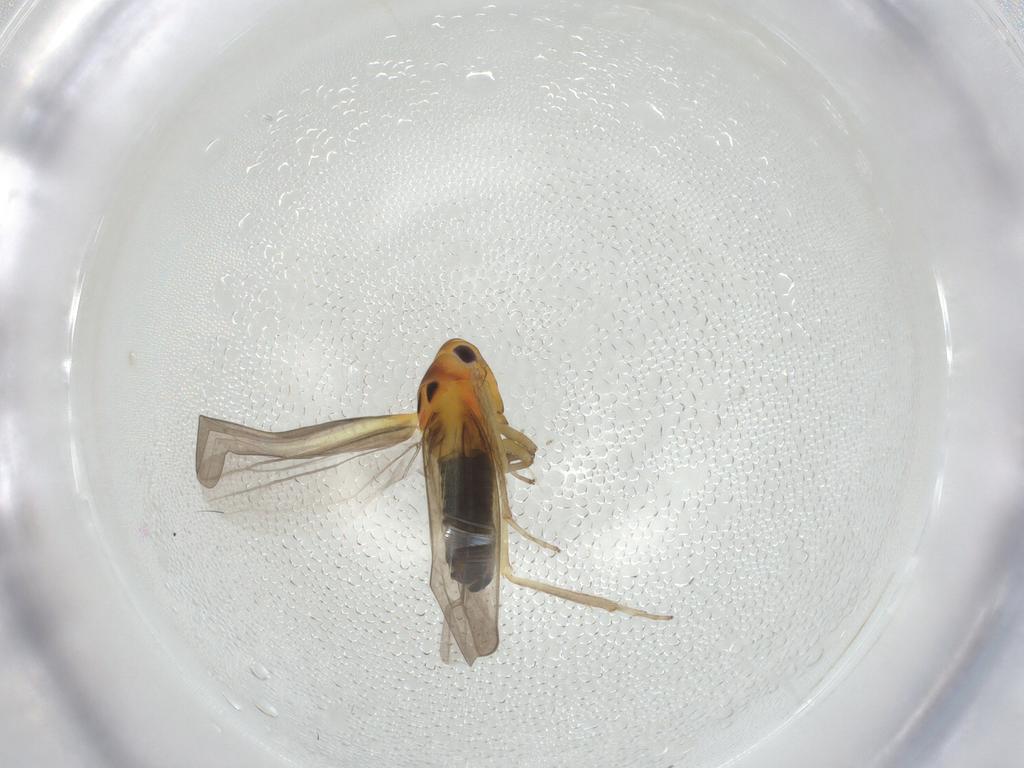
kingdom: Animalia
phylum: Arthropoda
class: Insecta
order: Hemiptera
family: Cicadellidae
